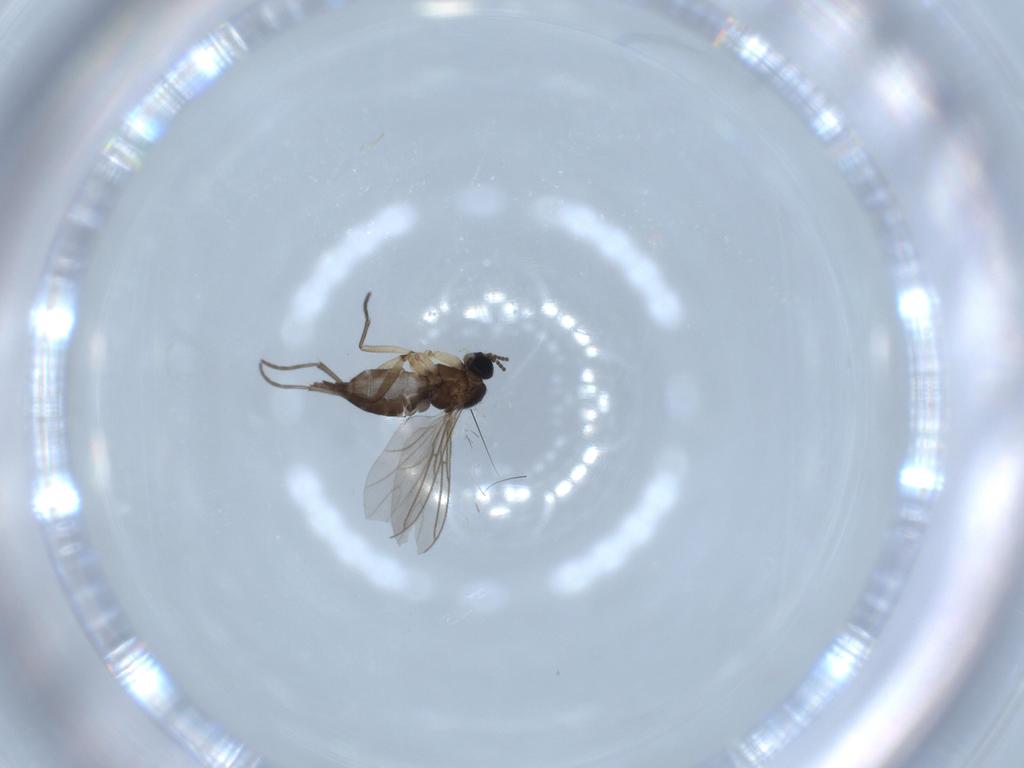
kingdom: Animalia
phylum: Arthropoda
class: Insecta
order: Diptera
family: Sciaridae
